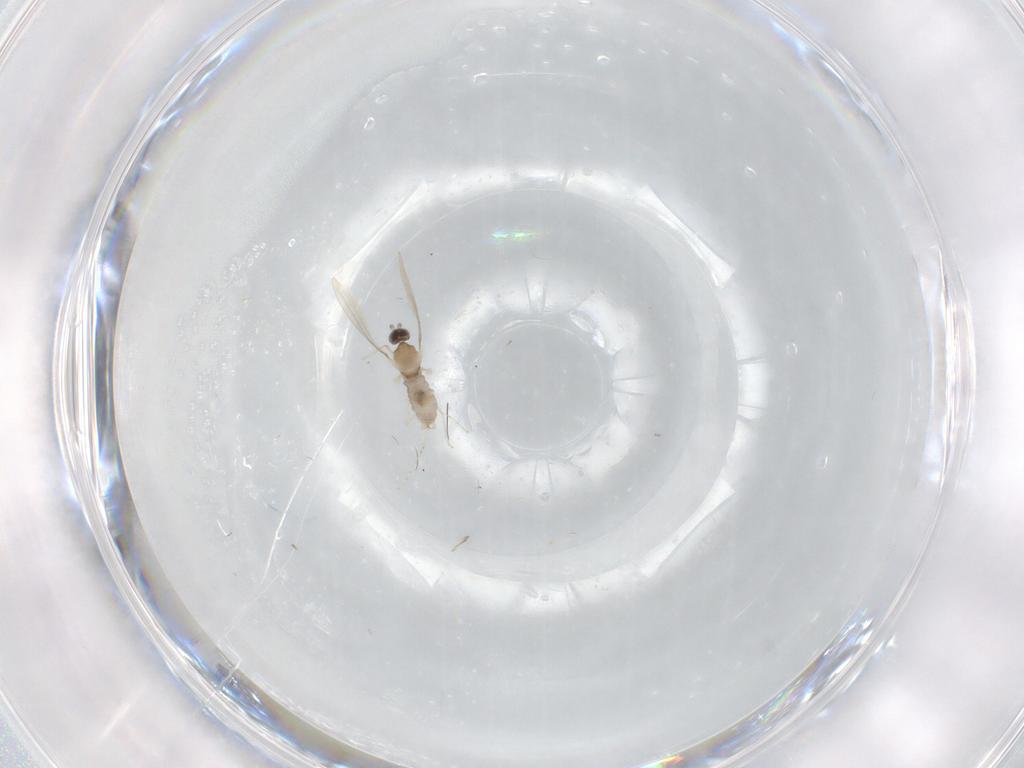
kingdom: Animalia
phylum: Arthropoda
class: Insecta
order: Diptera
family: Cecidomyiidae
